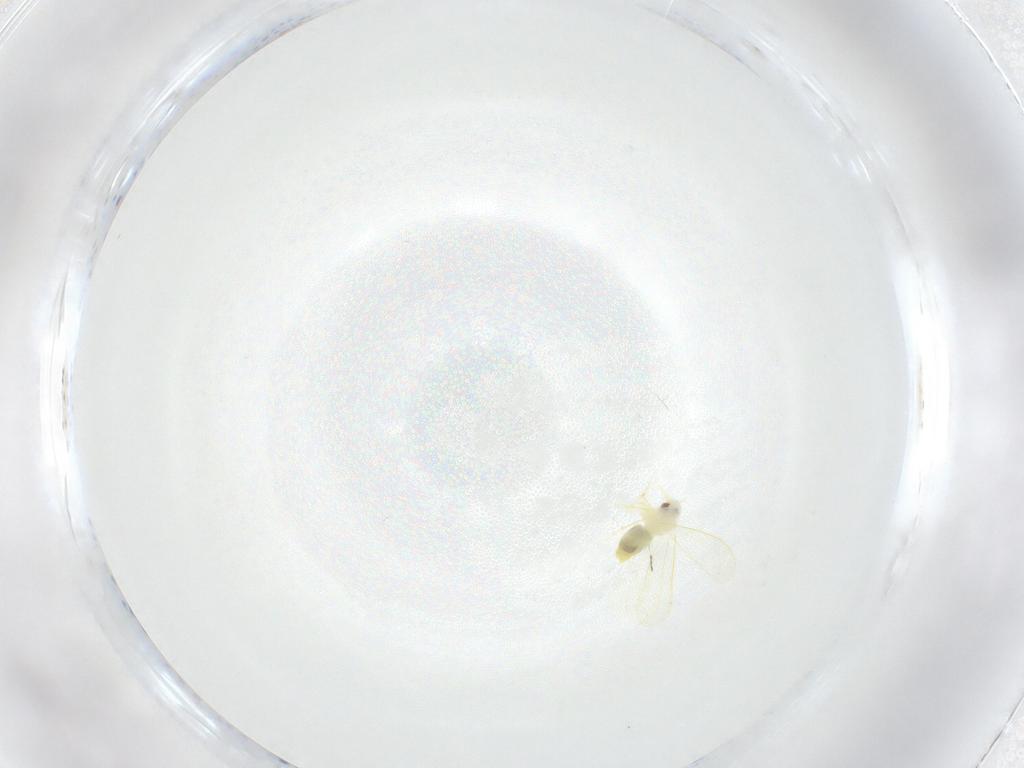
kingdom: Animalia
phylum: Arthropoda
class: Insecta
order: Hemiptera
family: Aleyrodidae
